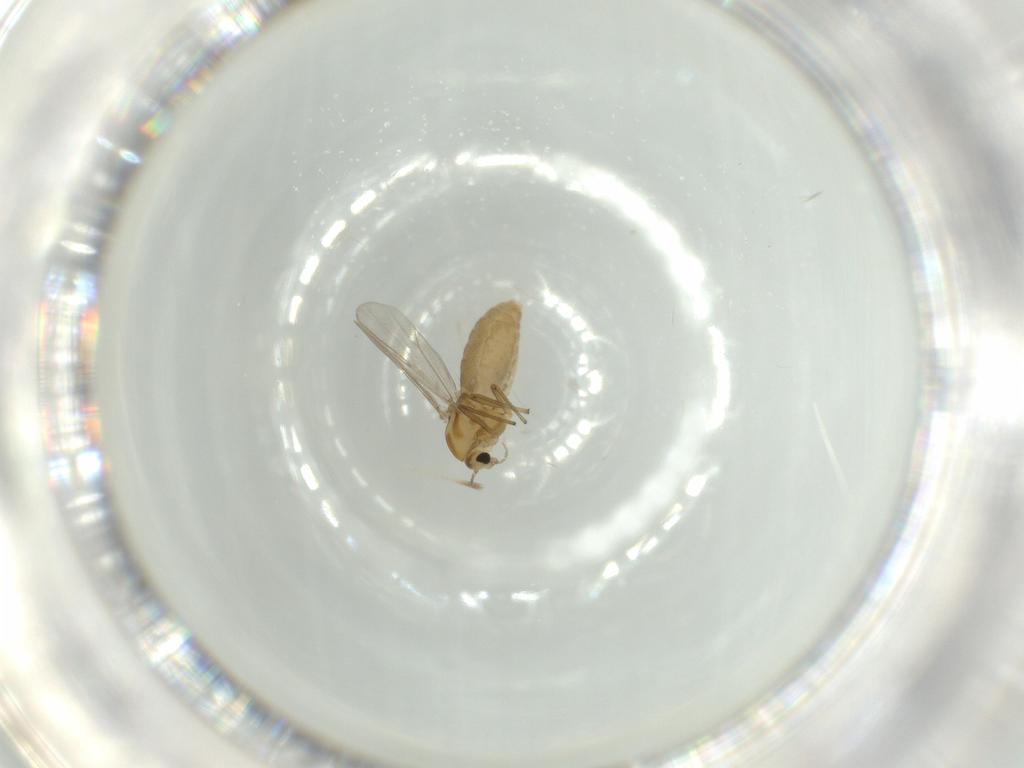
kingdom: Animalia
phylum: Arthropoda
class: Insecta
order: Diptera
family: Chironomidae
